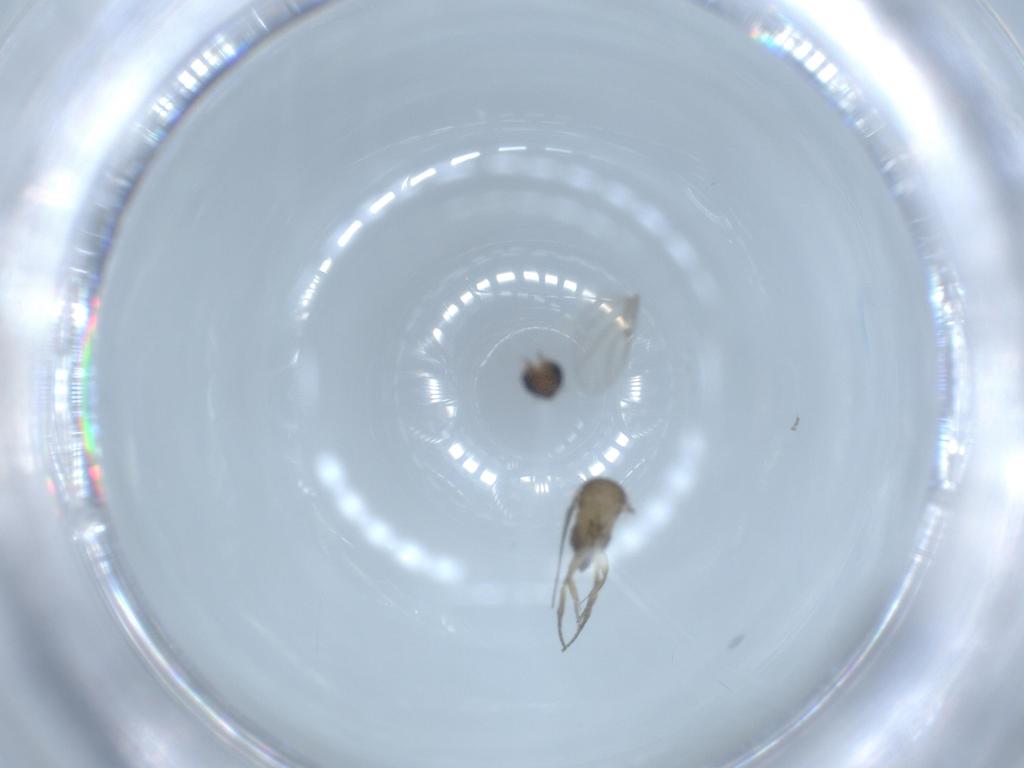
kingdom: Animalia
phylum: Arthropoda
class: Insecta
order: Diptera
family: Phoridae
